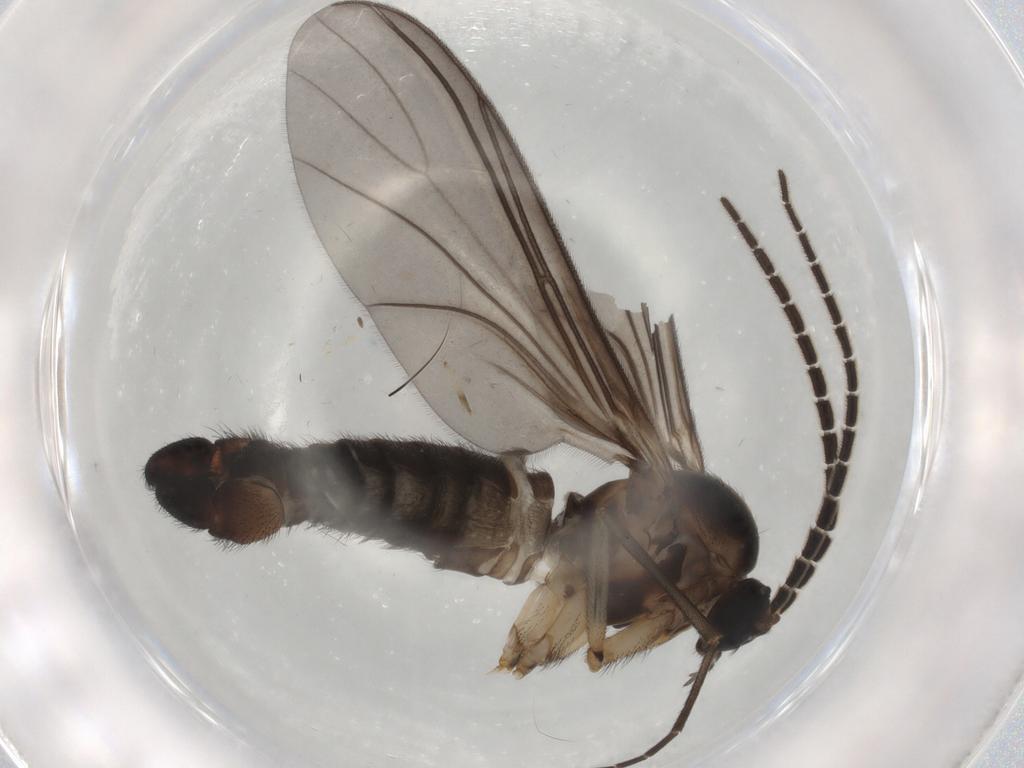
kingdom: Animalia
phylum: Arthropoda
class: Insecta
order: Diptera
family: Sciaridae
